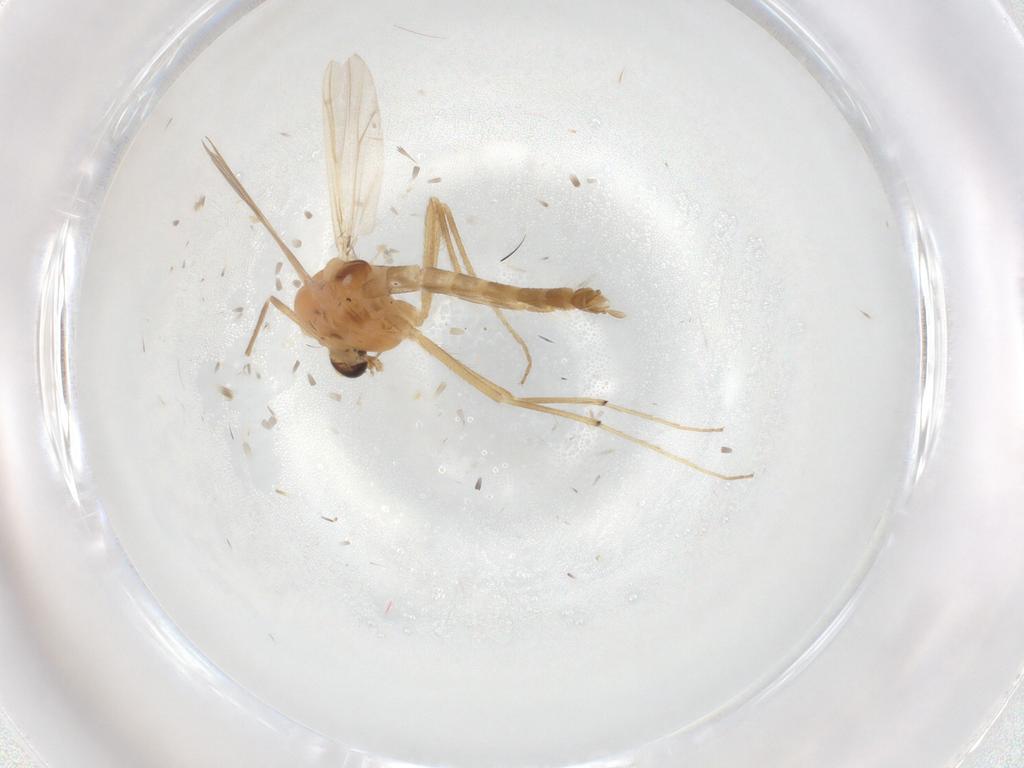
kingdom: Animalia
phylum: Arthropoda
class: Insecta
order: Diptera
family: Chironomidae
